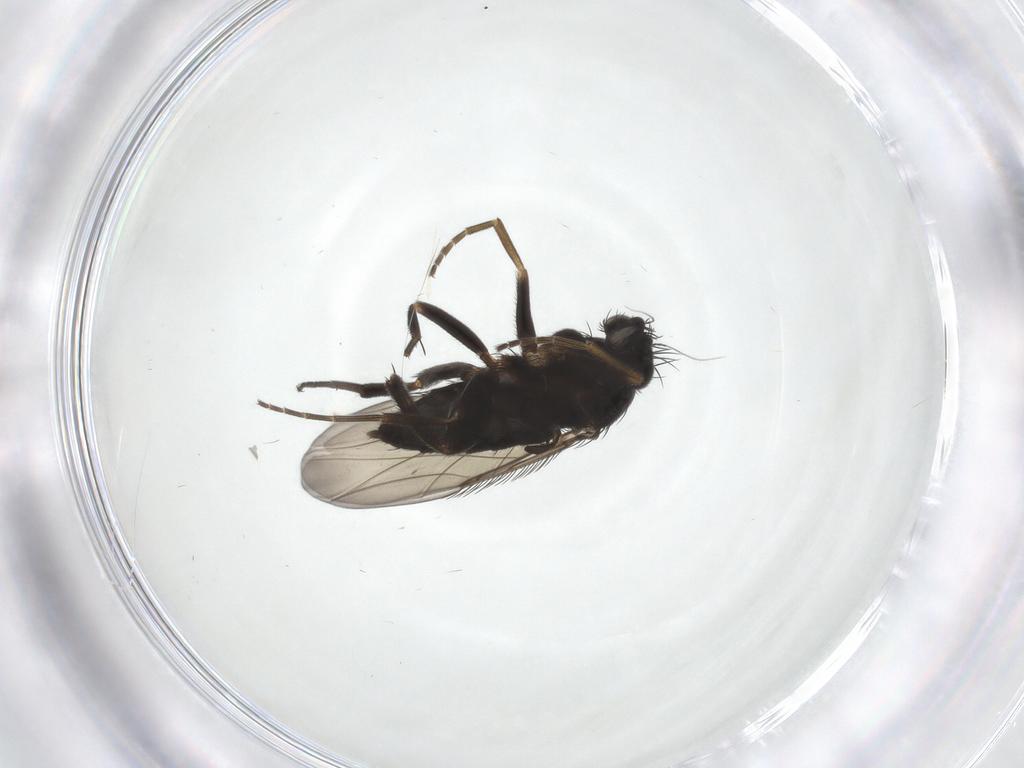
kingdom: Animalia
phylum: Arthropoda
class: Insecta
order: Diptera
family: Phoridae
